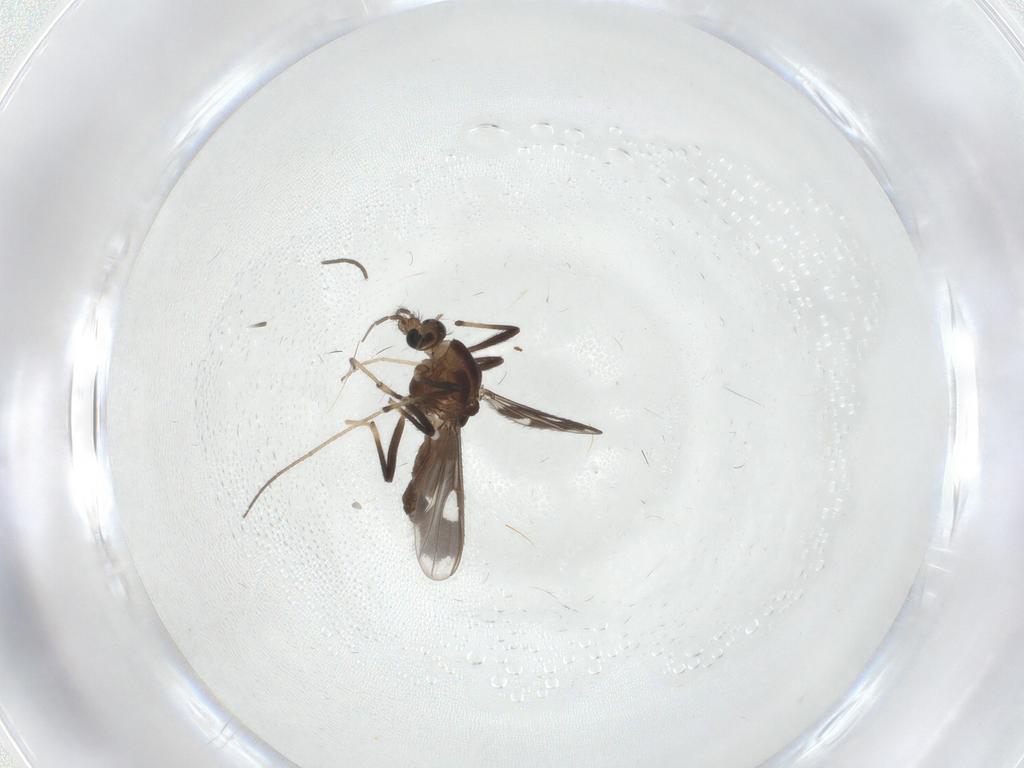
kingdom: Animalia
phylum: Arthropoda
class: Insecta
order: Diptera
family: Chironomidae
